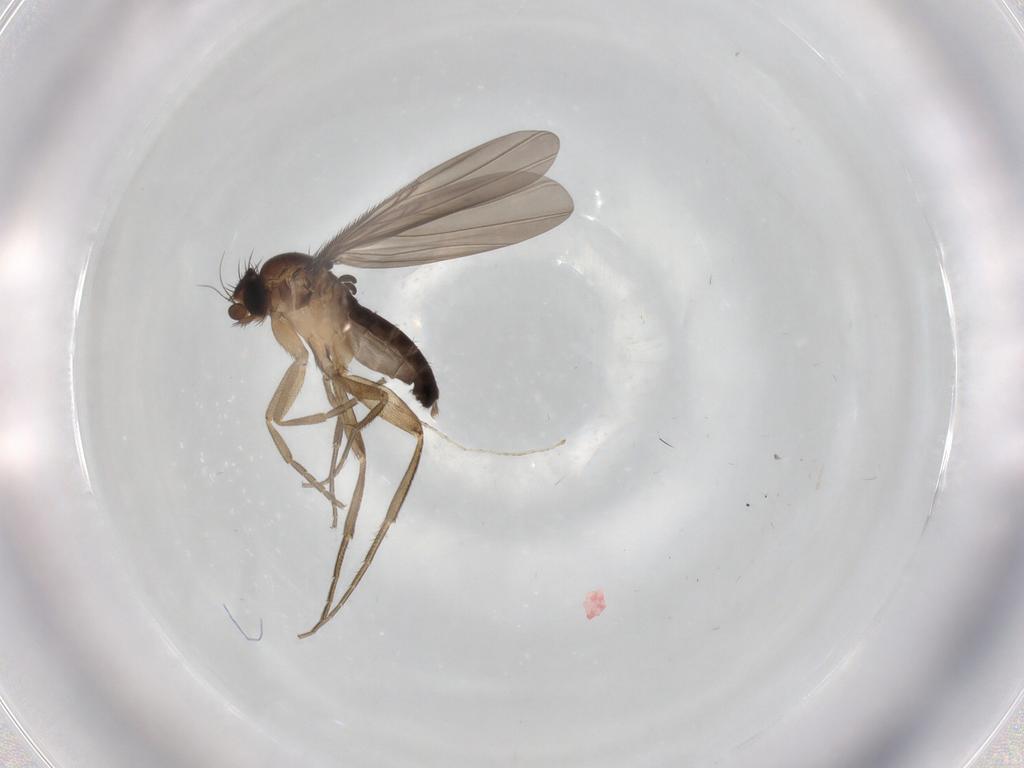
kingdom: Animalia
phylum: Arthropoda
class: Insecta
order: Diptera
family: Phoridae
